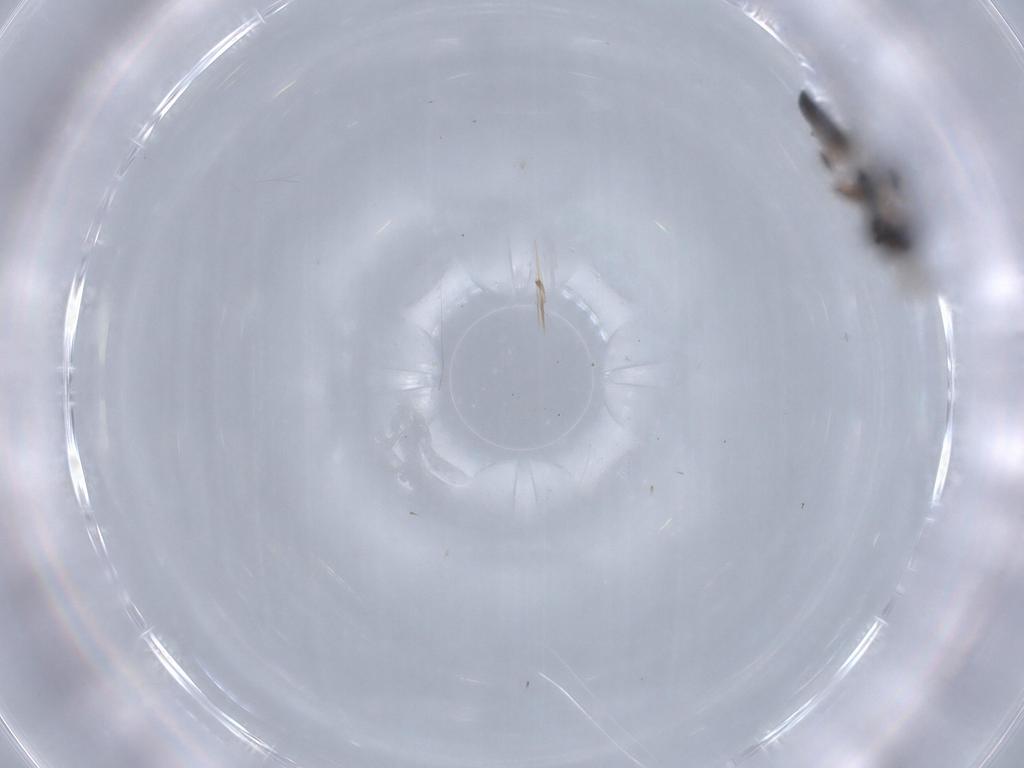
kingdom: Animalia
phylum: Arthropoda
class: Insecta
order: Hymenoptera
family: Ichneumonidae
